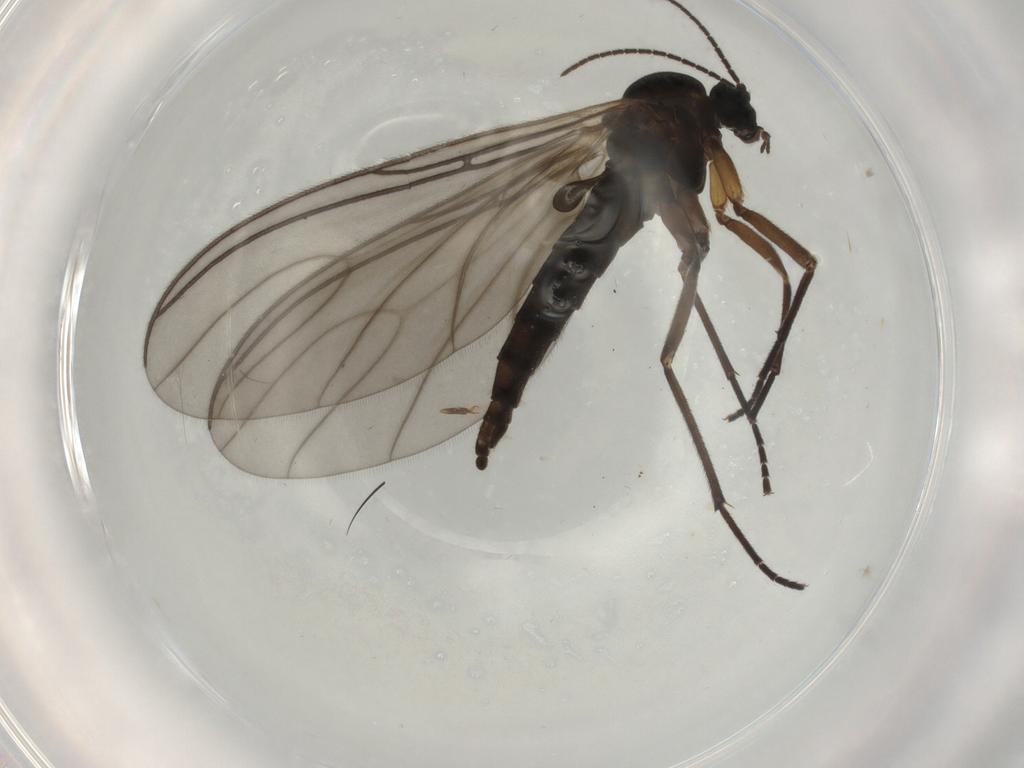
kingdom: Animalia
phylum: Arthropoda
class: Insecta
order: Diptera
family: Sciaridae
